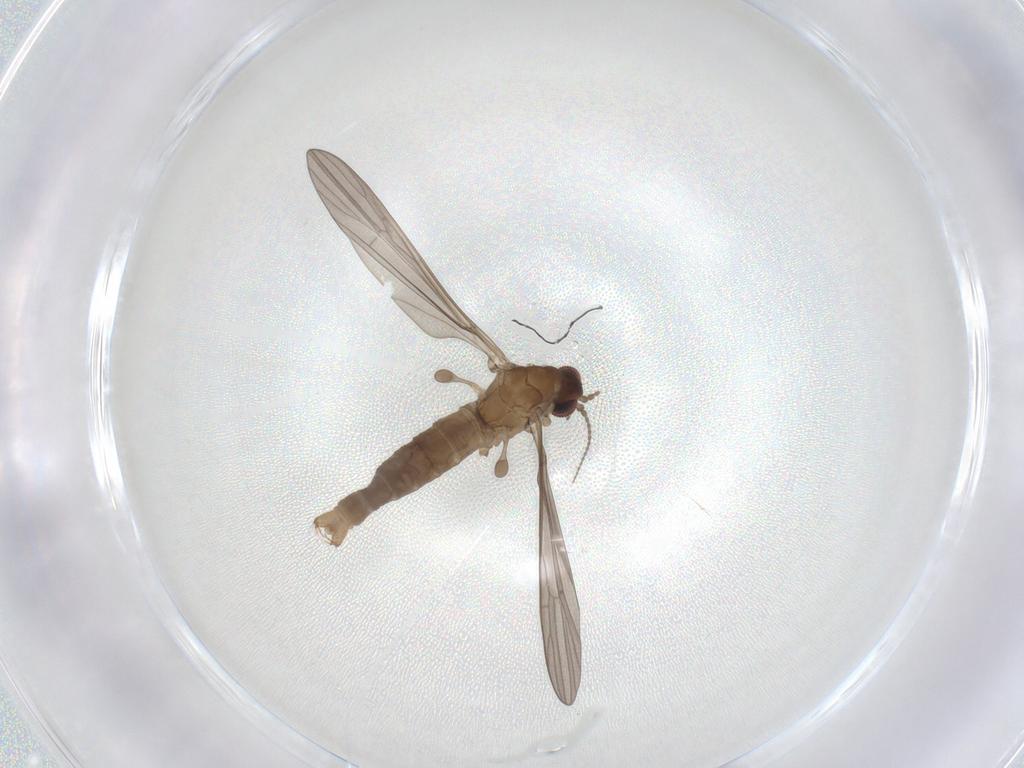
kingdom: Animalia
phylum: Arthropoda
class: Insecta
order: Diptera
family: Limoniidae
